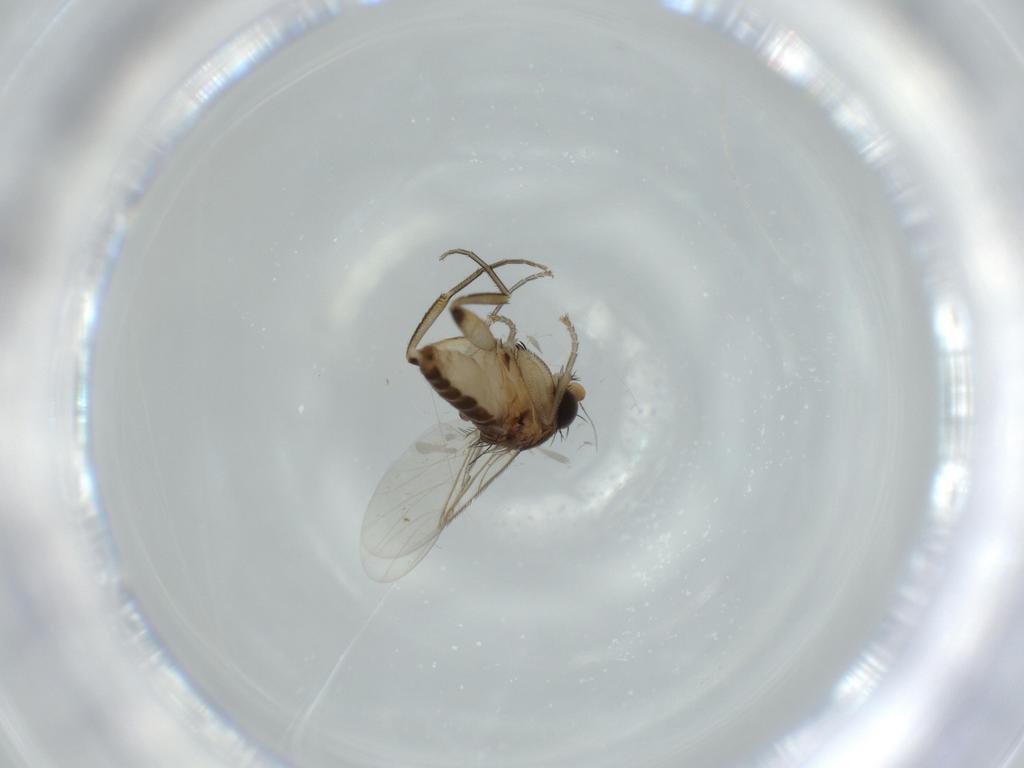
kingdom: Animalia
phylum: Arthropoda
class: Insecta
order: Diptera
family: Phoridae
